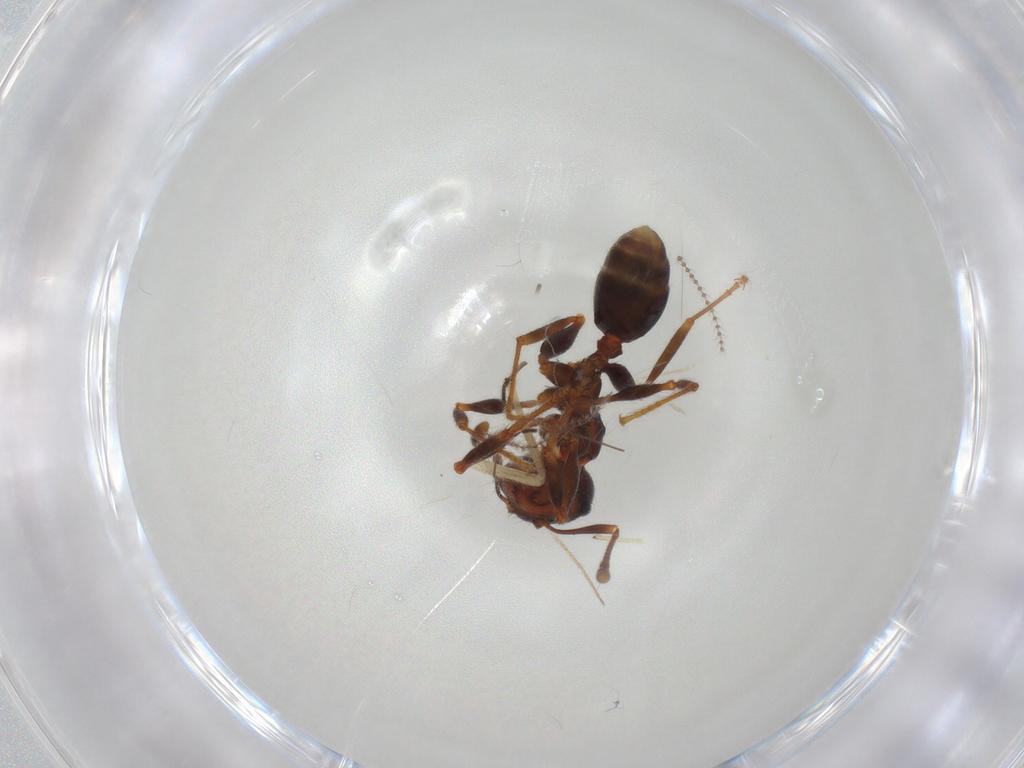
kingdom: Animalia
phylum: Arthropoda
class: Insecta
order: Hymenoptera
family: Scelionidae
